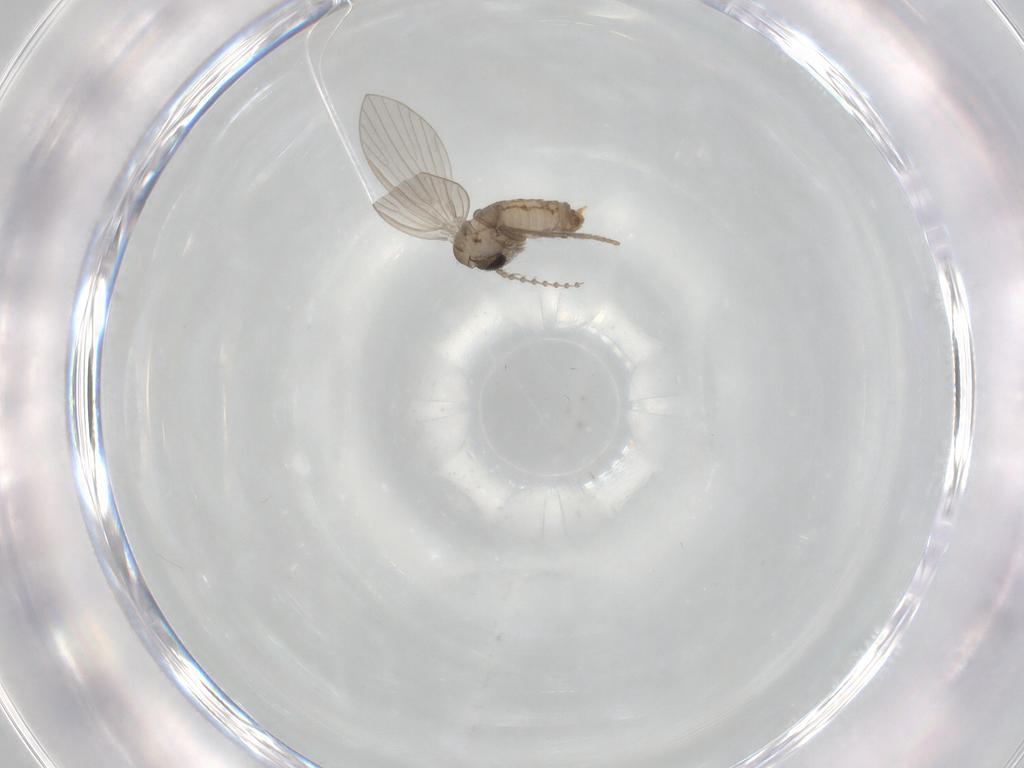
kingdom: Animalia
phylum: Arthropoda
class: Insecta
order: Diptera
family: Psychodidae
